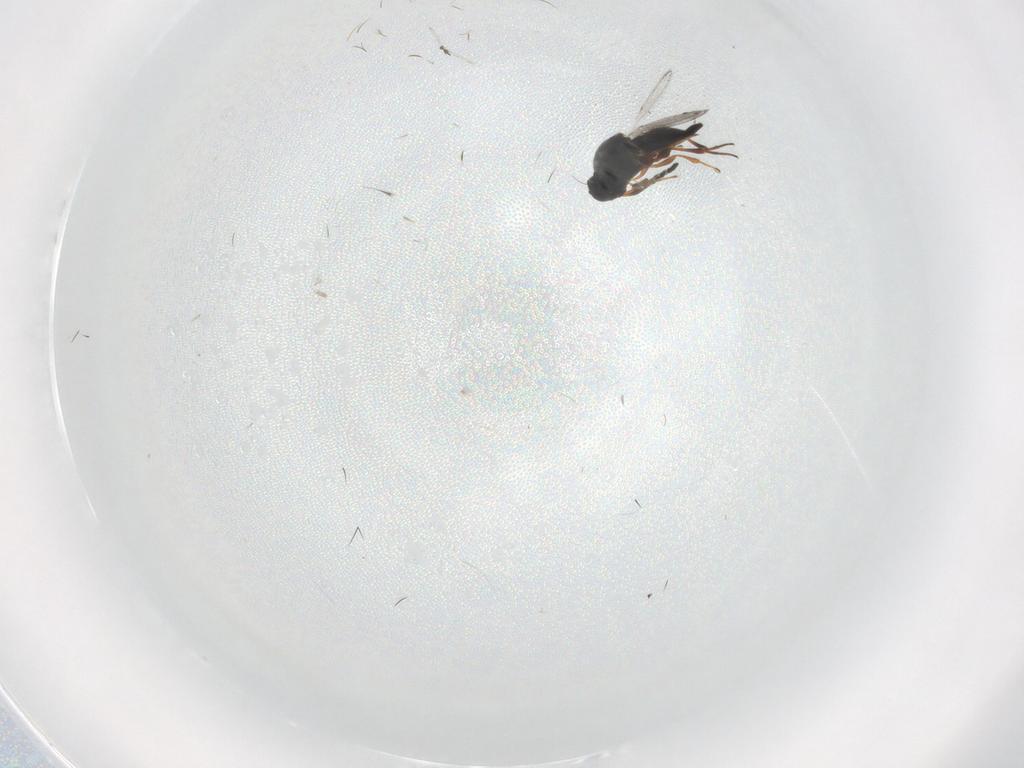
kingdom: Animalia
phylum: Arthropoda
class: Insecta
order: Hymenoptera
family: Platygastridae
